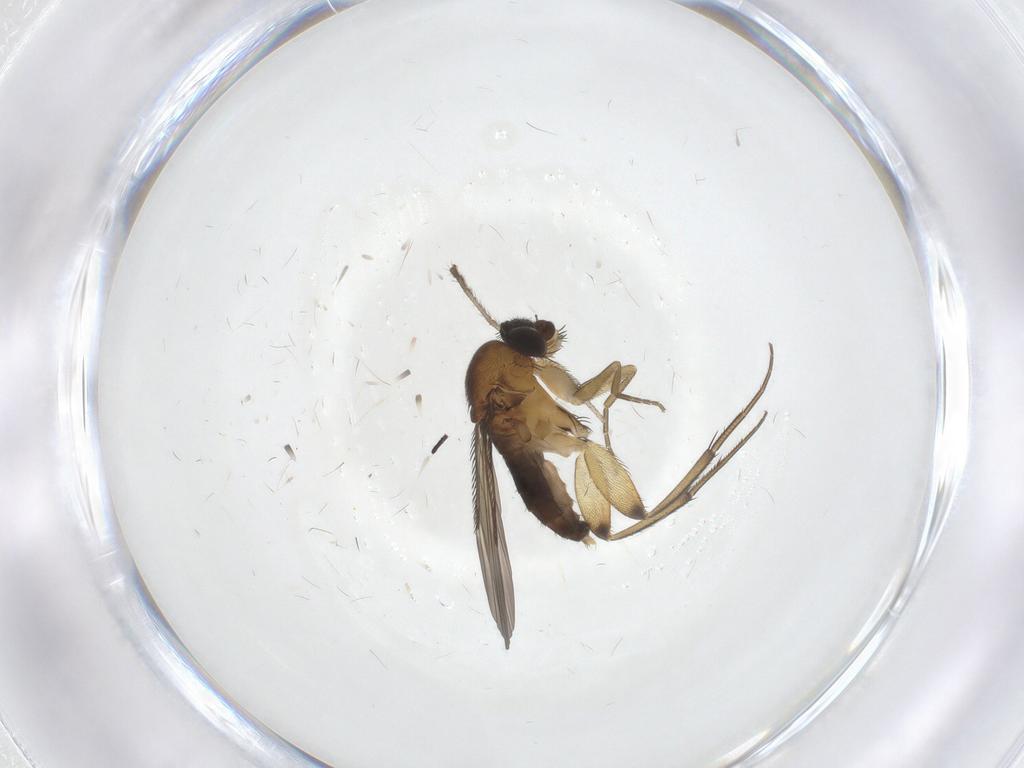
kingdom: Animalia
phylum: Arthropoda
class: Insecta
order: Diptera
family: Phoridae
